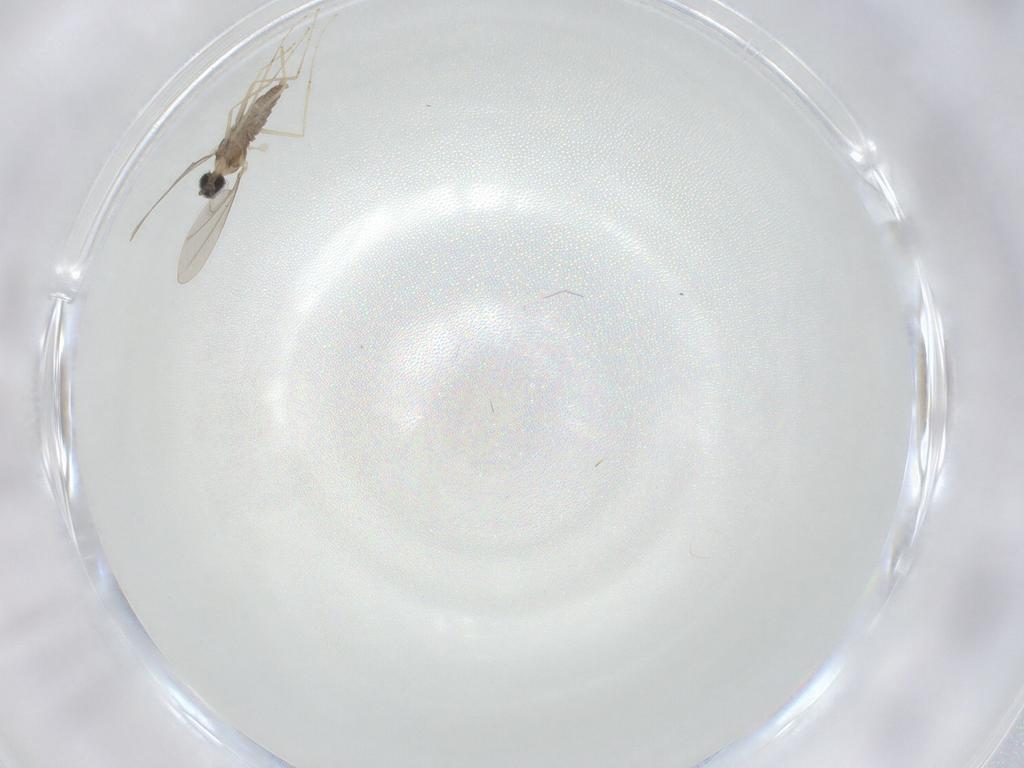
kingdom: Animalia
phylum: Arthropoda
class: Insecta
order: Diptera
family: Cecidomyiidae
